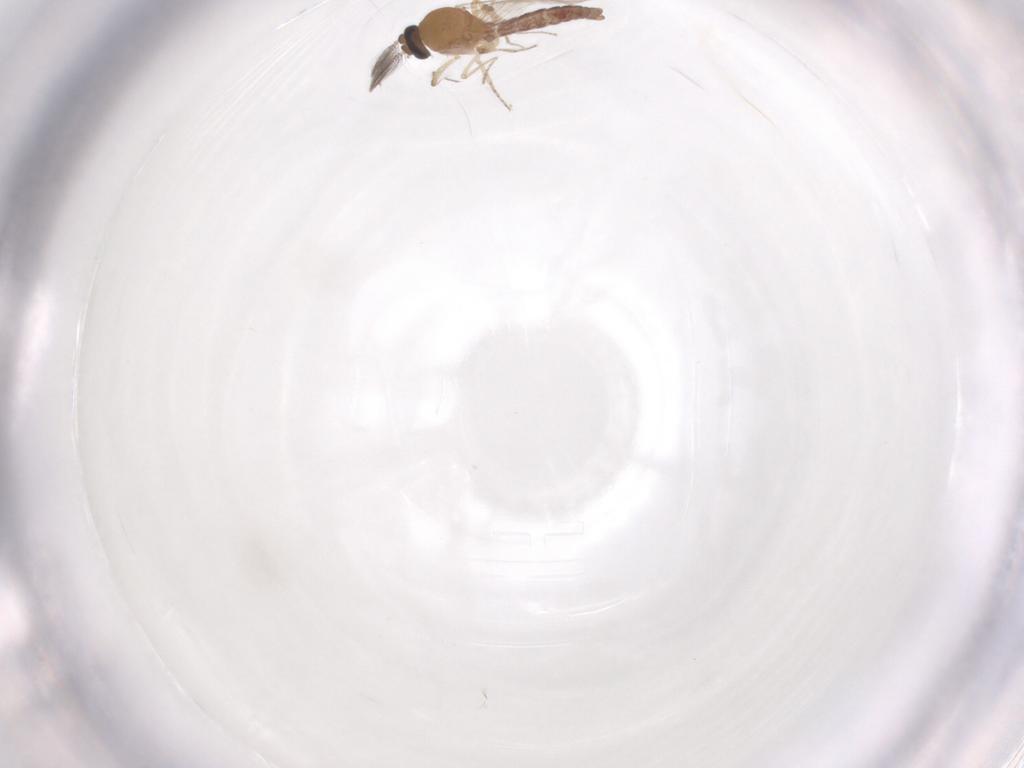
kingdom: Animalia
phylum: Arthropoda
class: Insecta
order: Diptera
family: Ceratopogonidae
